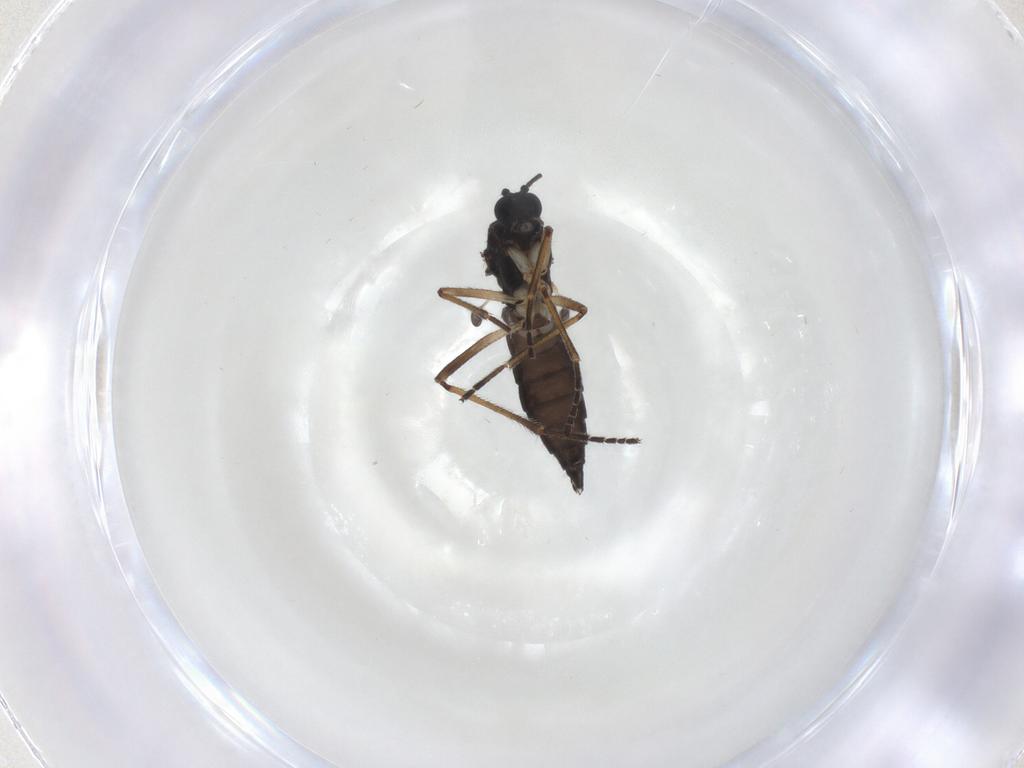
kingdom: Animalia
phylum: Arthropoda
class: Insecta
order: Diptera
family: Sciaridae
